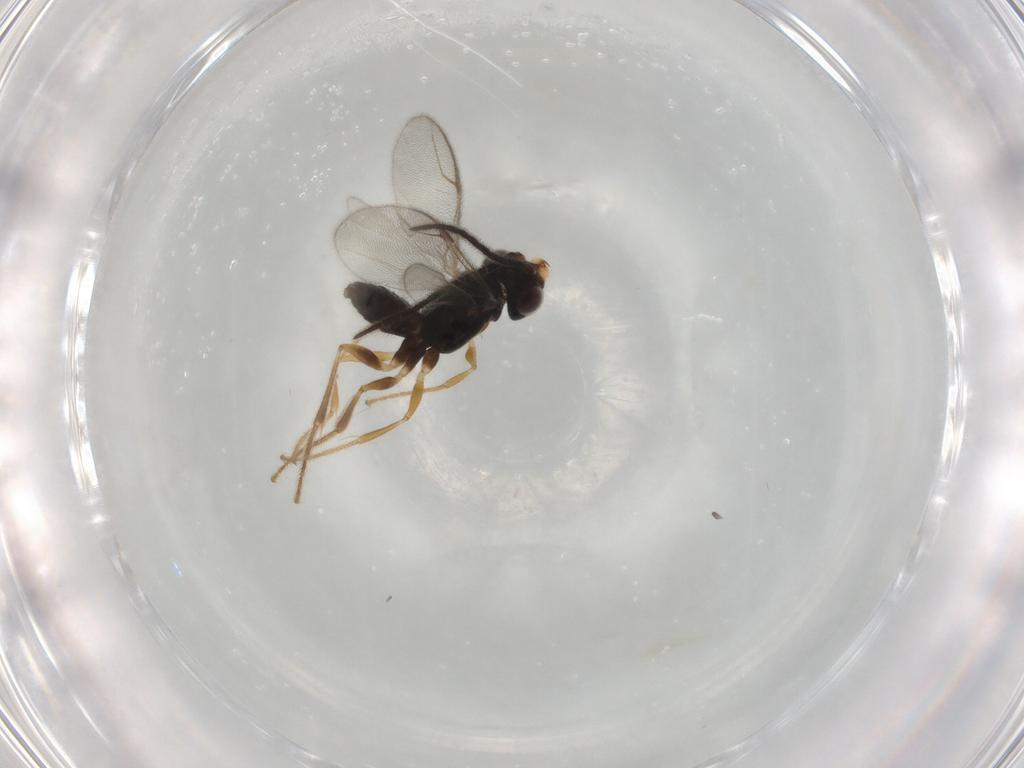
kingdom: Animalia
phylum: Arthropoda
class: Insecta
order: Hymenoptera
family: Dryinidae
